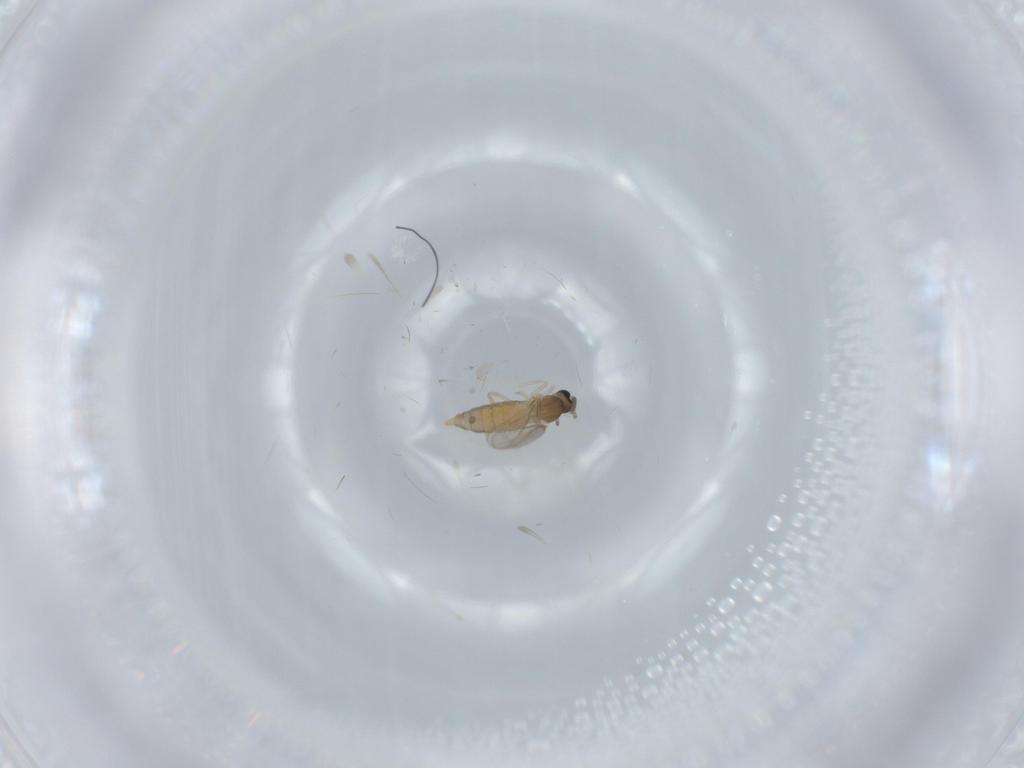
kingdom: Animalia
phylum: Arthropoda
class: Insecta
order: Diptera
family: Cecidomyiidae
